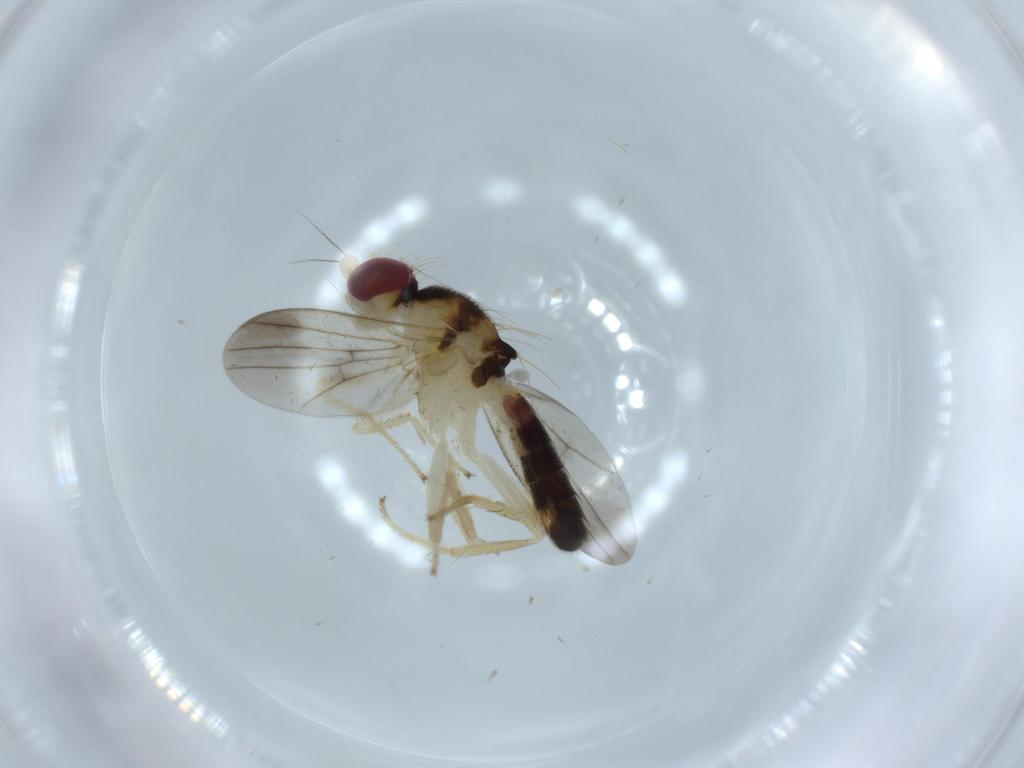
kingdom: Animalia
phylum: Arthropoda
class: Insecta
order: Diptera
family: Clusiidae
